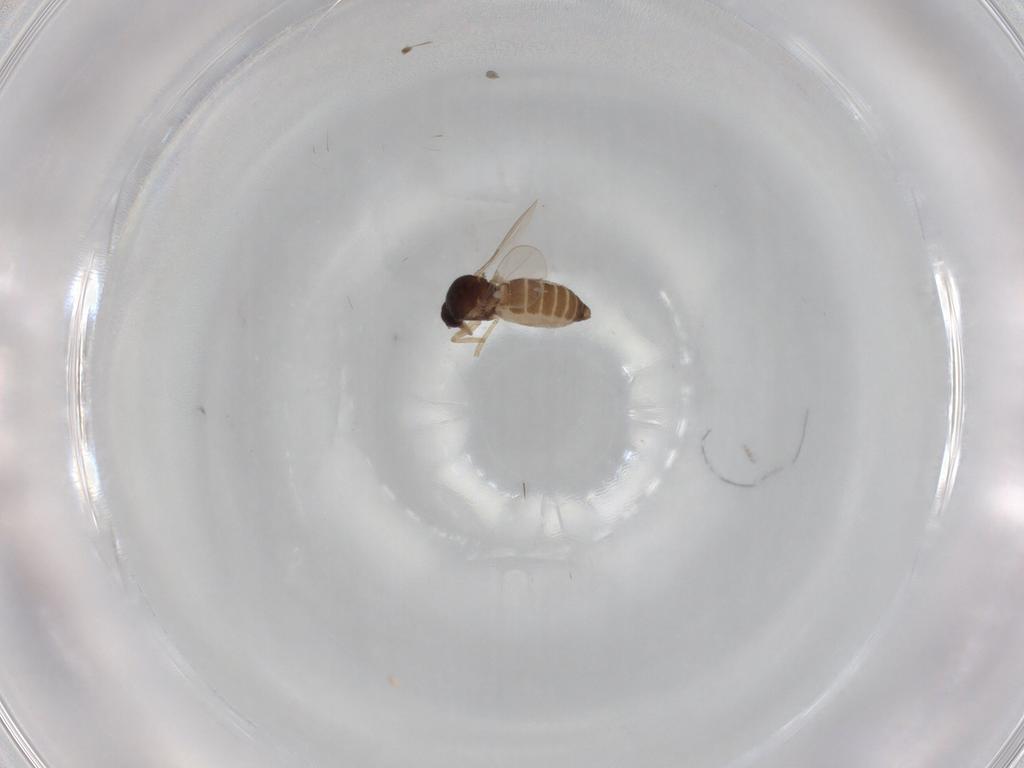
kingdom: Animalia
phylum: Arthropoda
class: Insecta
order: Diptera
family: Ceratopogonidae
